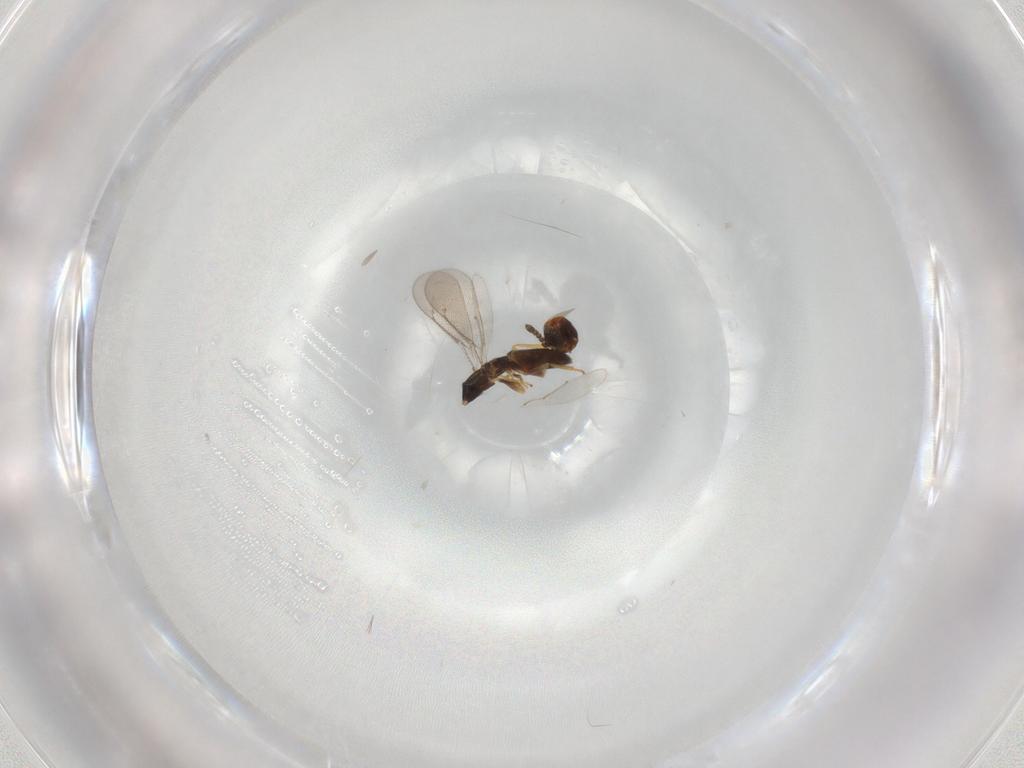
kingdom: Animalia
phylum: Arthropoda
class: Insecta
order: Hymenoptera
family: Eulophidae
